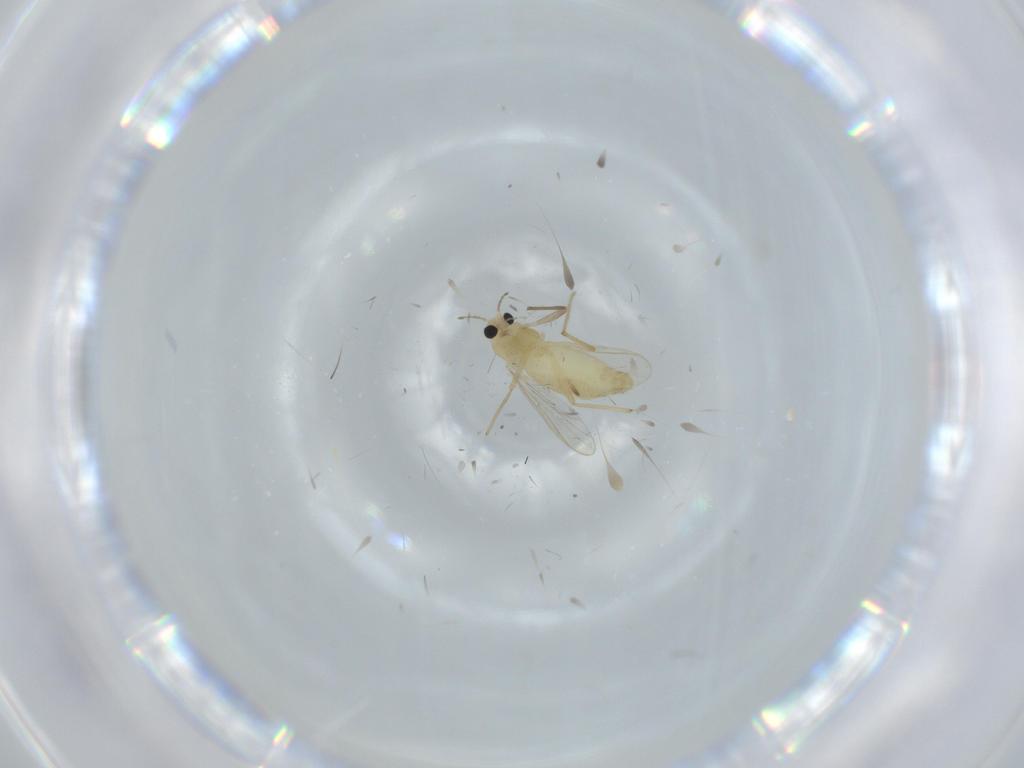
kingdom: Animalia
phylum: Arthropoda
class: Insecta
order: Diptera
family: Chironomidae
